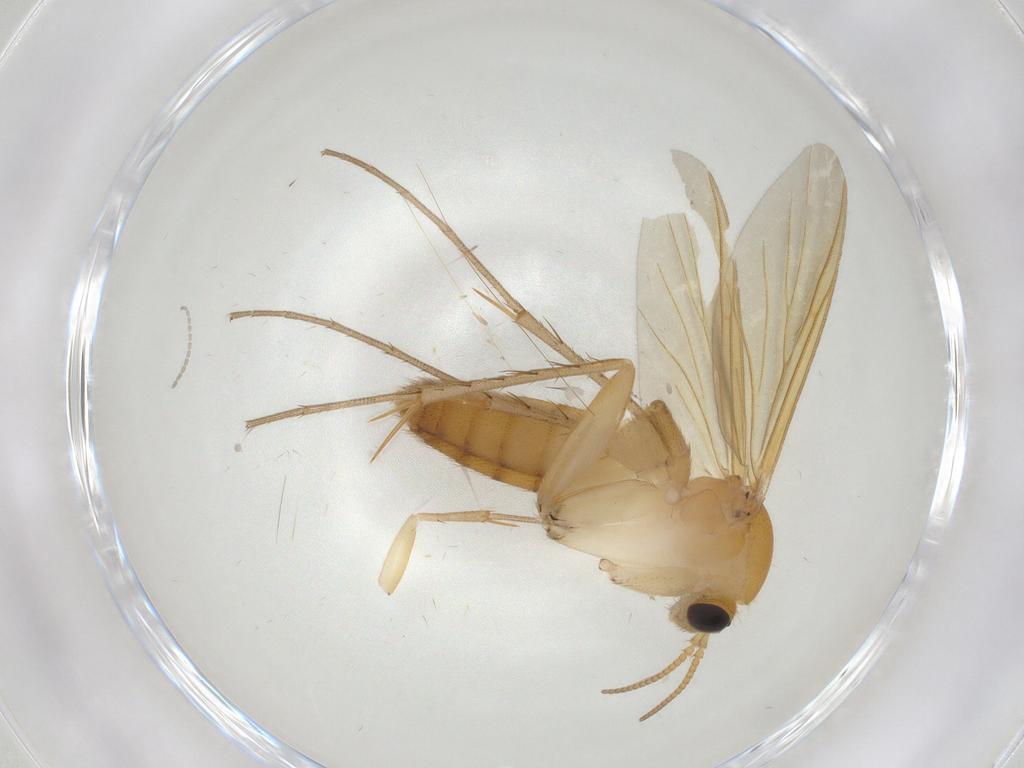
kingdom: Animalia
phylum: Arthropoda
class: Insecta
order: Diptera
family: Mycetophilidae
